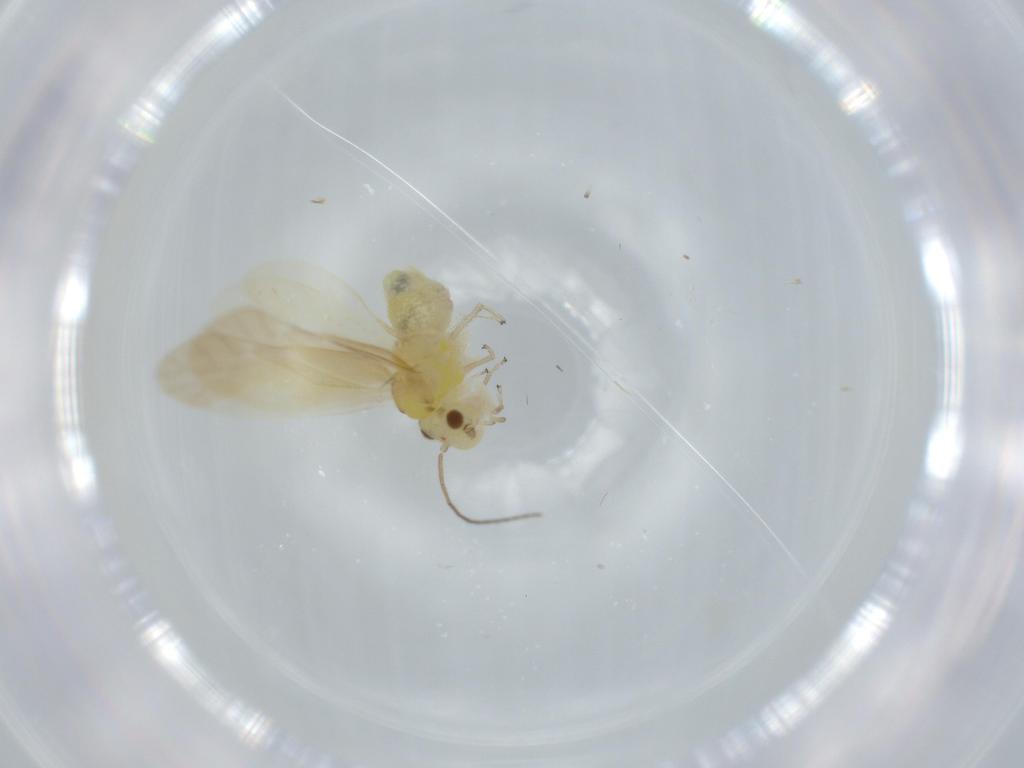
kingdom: Animalia
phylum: Arthropoda
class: Insecta
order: Psocodea
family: Caeciliusidae
